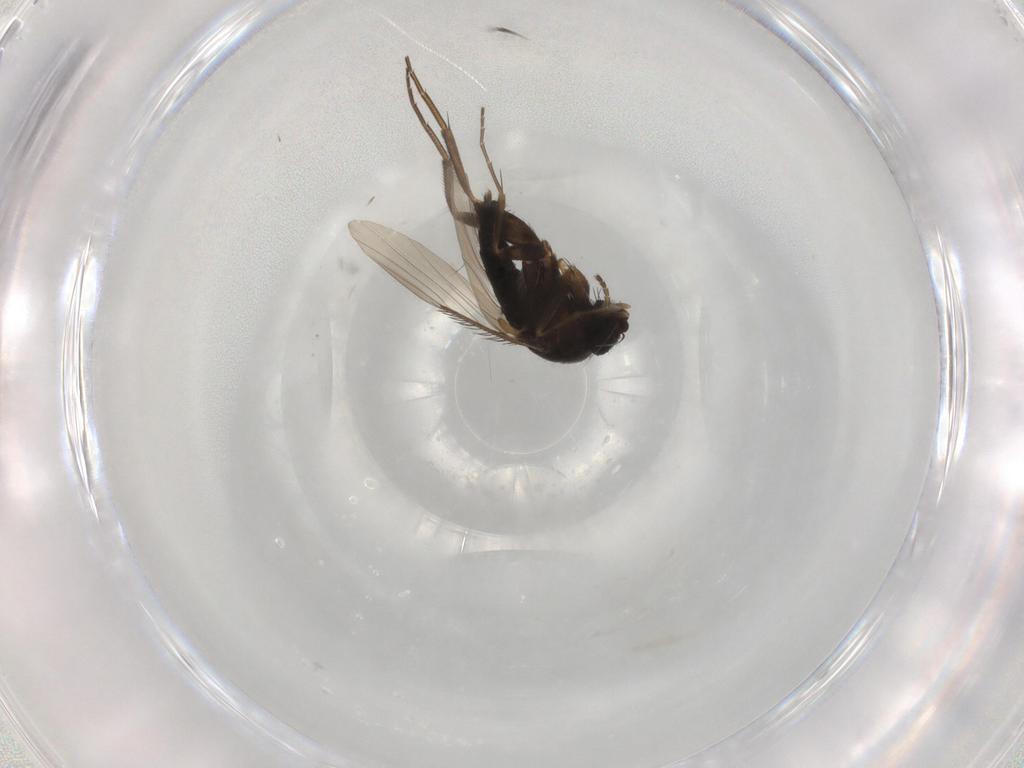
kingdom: Animalia
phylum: Arthropoda
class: Insecta
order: Diptera
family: Phoridae
